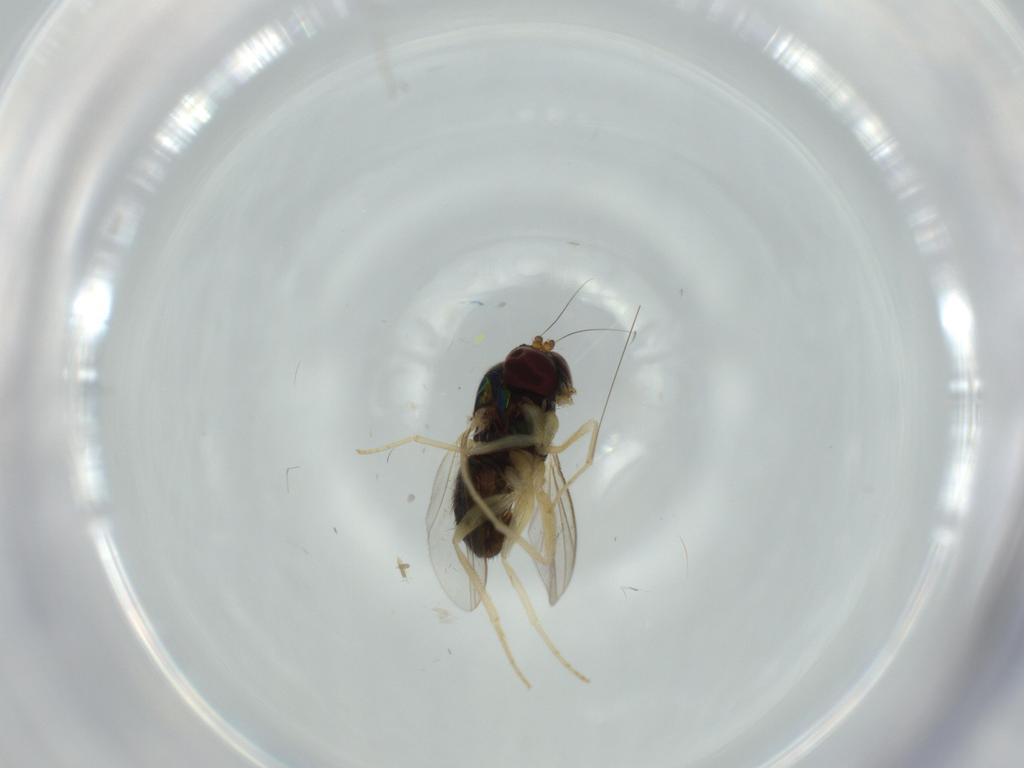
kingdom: Animalia
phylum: Arthropoda
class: Insecta
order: Diptera
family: Dolichopodidae
